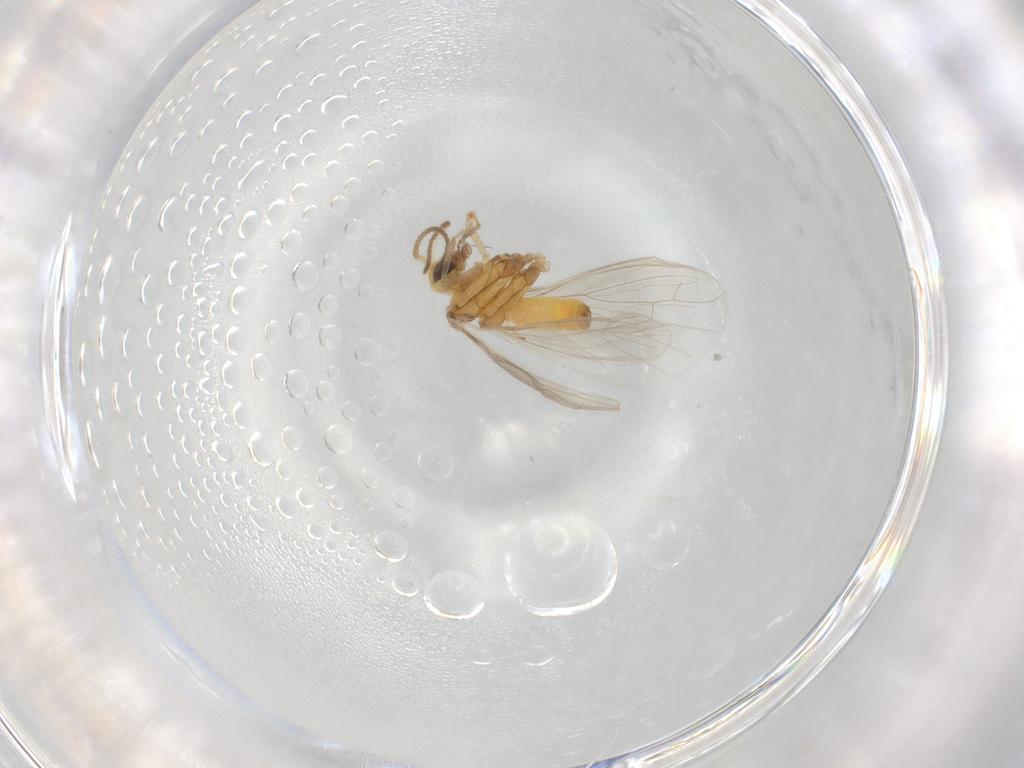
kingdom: Animalia
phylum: Arthropoda
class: Insecta
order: Neuroptera
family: Coniopterygidae
